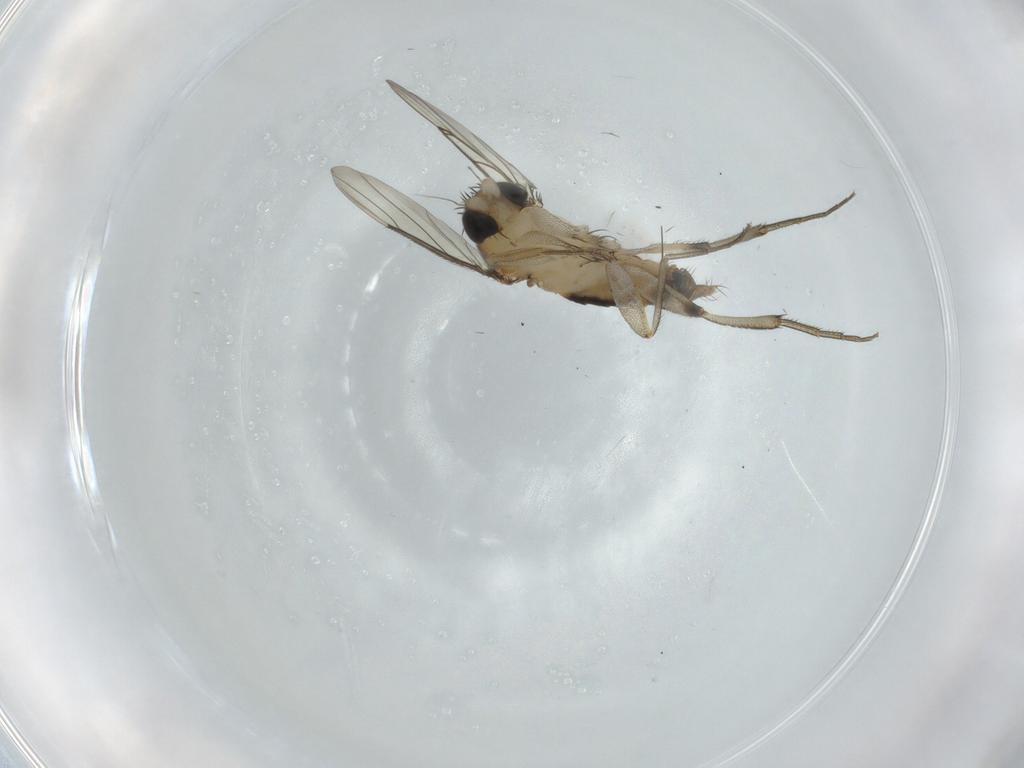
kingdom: Animalia
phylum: Arthropoda
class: Insecta
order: Diptera
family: Phoridae
